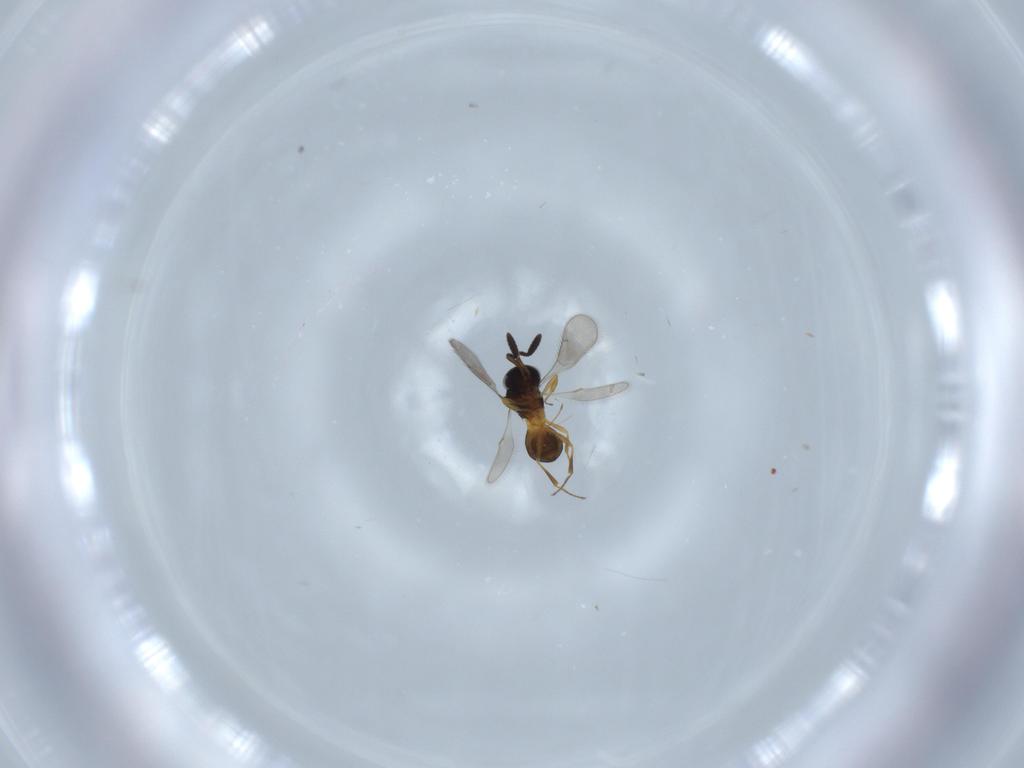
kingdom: Animalia
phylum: Arthropoda
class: Insecta
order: Hymenoptera
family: Scelionidae
